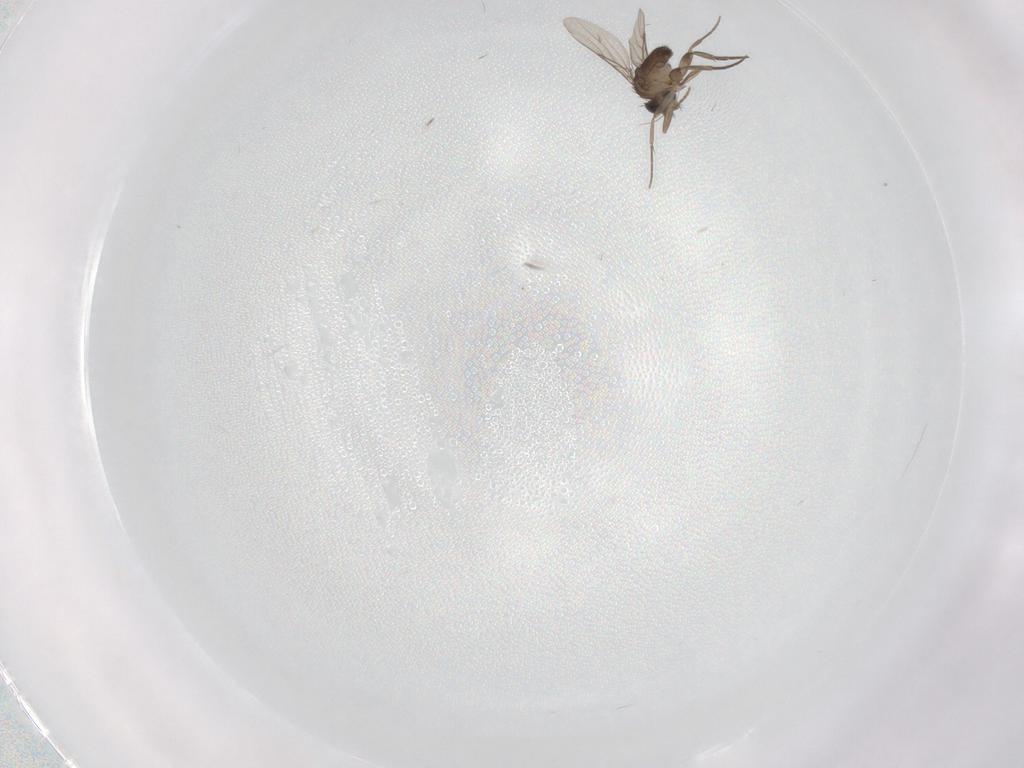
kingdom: Animalia
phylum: Arthropoda
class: Insecta
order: Diptera
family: Phoridae
